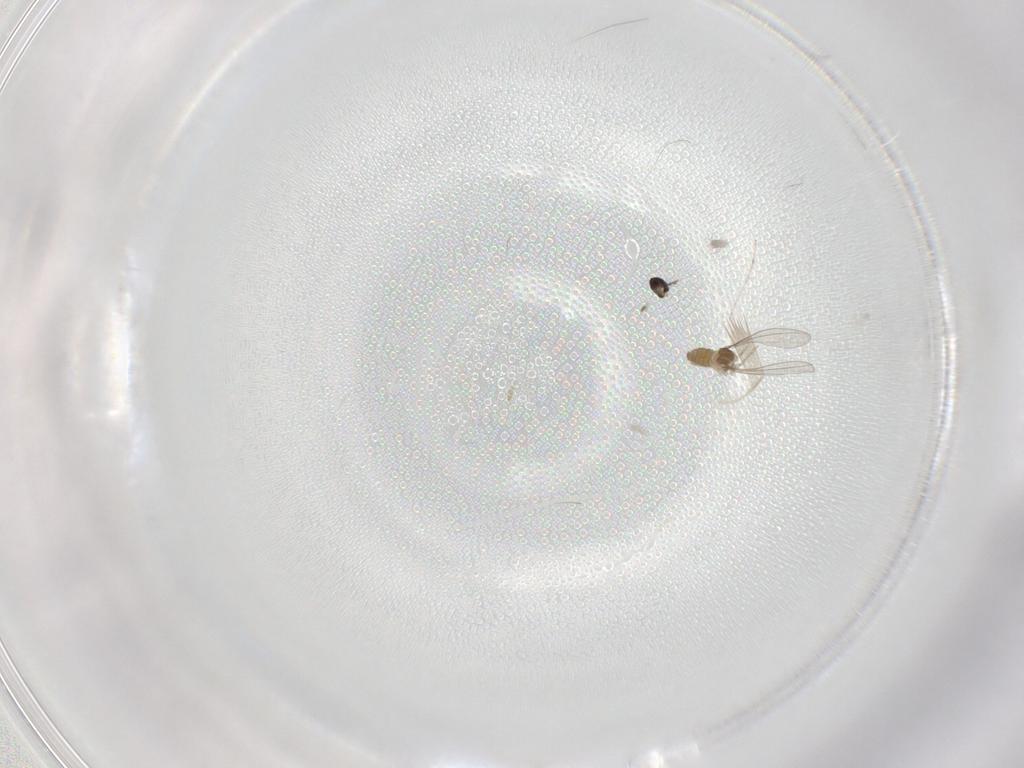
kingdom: Animalia
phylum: Arthropoda
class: Insecta
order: Diptera
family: Cecidomyiidae
